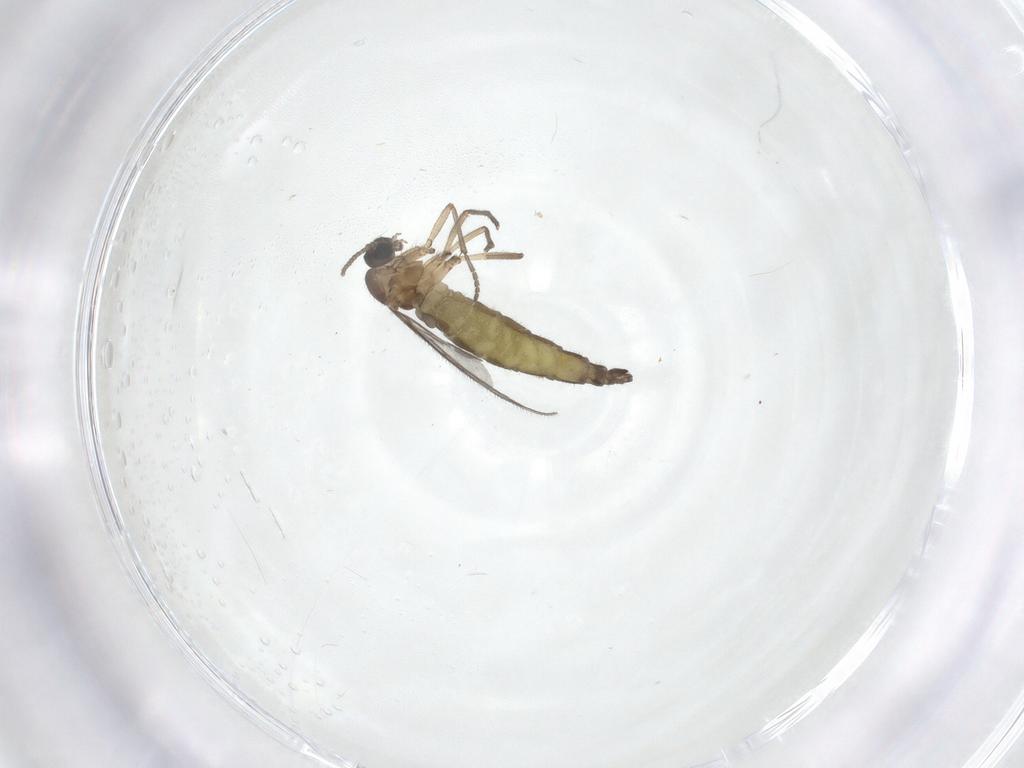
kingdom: Animalia
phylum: Arthropoda
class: Insecta
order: Diptera
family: Sciaridae
